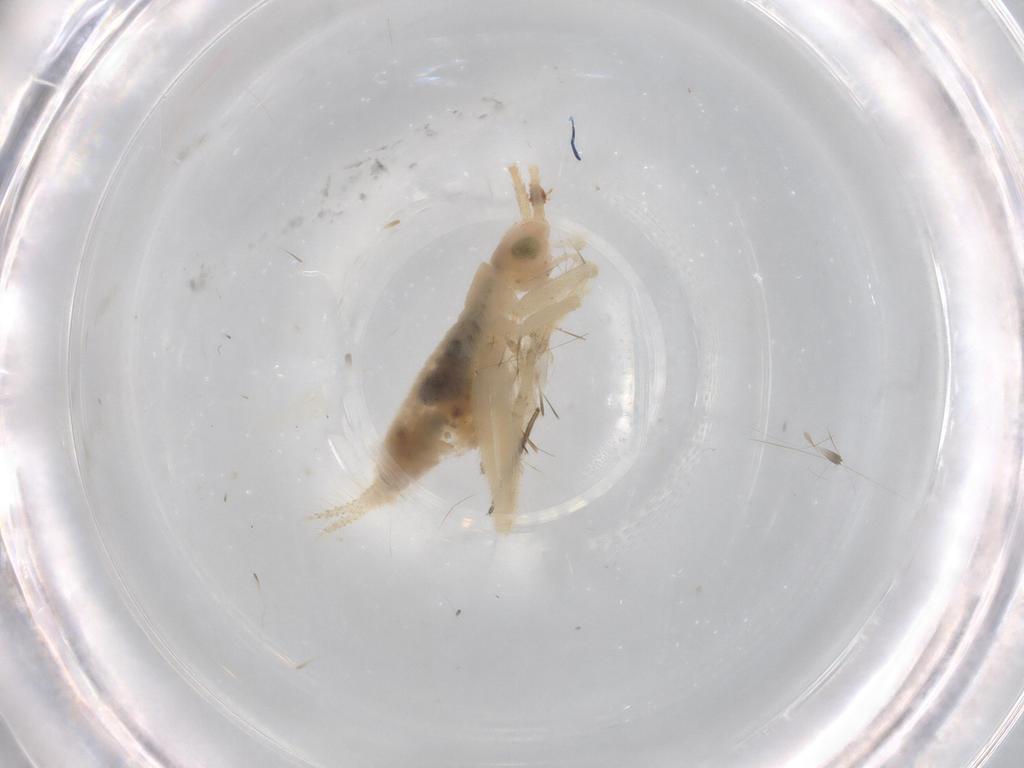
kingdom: Animalia
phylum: Arthropoda
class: Insecta
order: Orthoptera
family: Trigonidiidae
